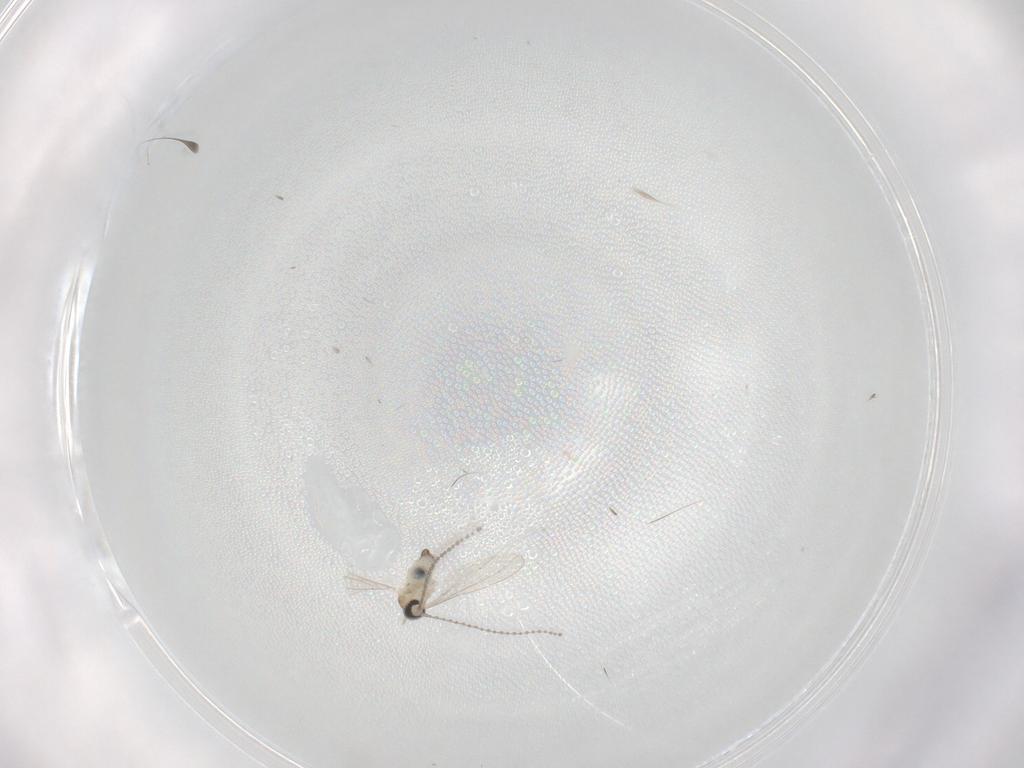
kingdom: Animalia
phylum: Arthropoda
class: Insecta
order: Diptera
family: Cecidomyiidae
